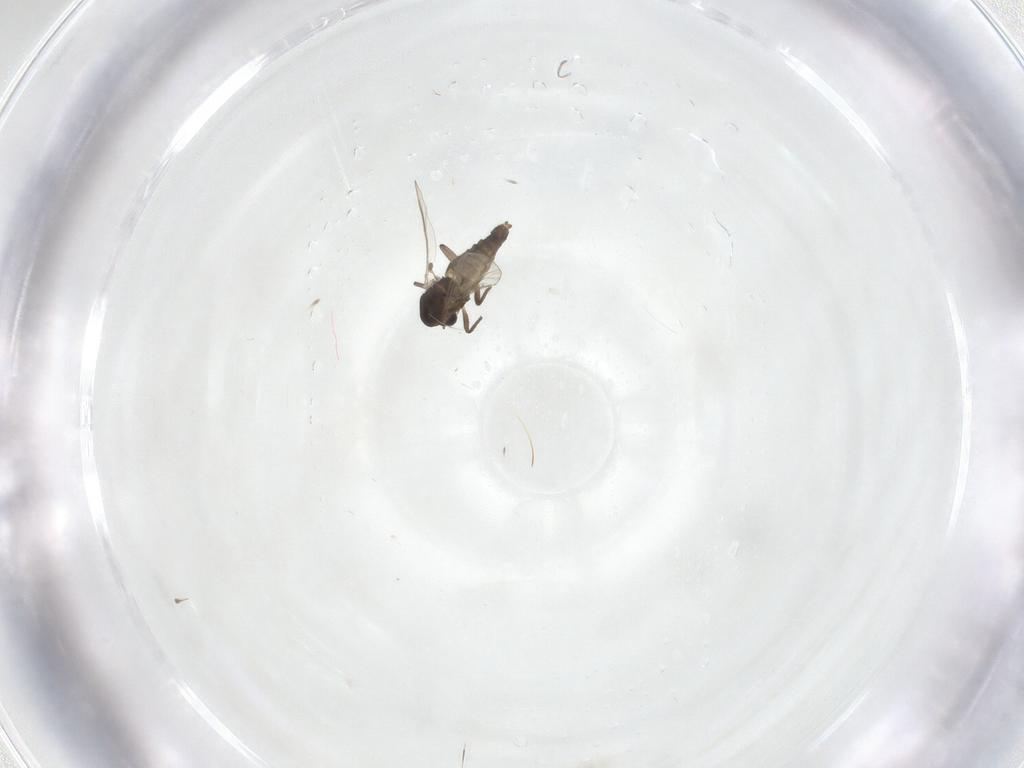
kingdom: Animalia
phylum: Arthropoda
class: Insecta
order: Diptera
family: Chironomidae
